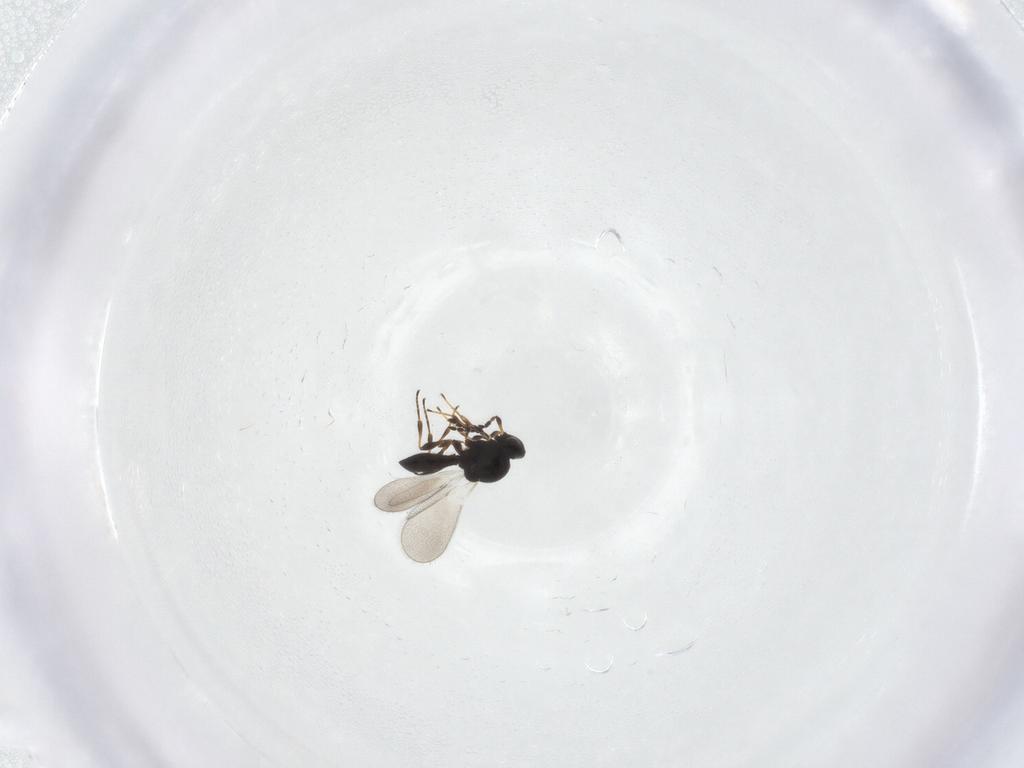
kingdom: Animalia
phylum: Arthropoda
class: Insecta
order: Hymenoptera
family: Platygastridae
